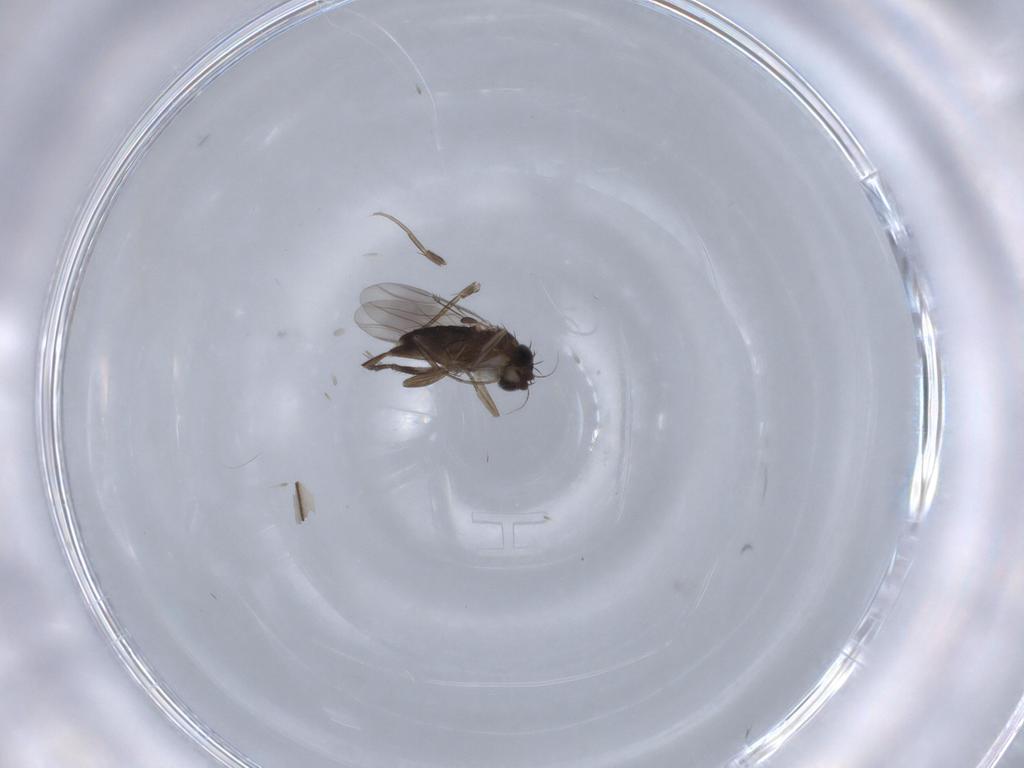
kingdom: Animalia
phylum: Arthropoda
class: Insecta
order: Diptera
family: Phoridae
